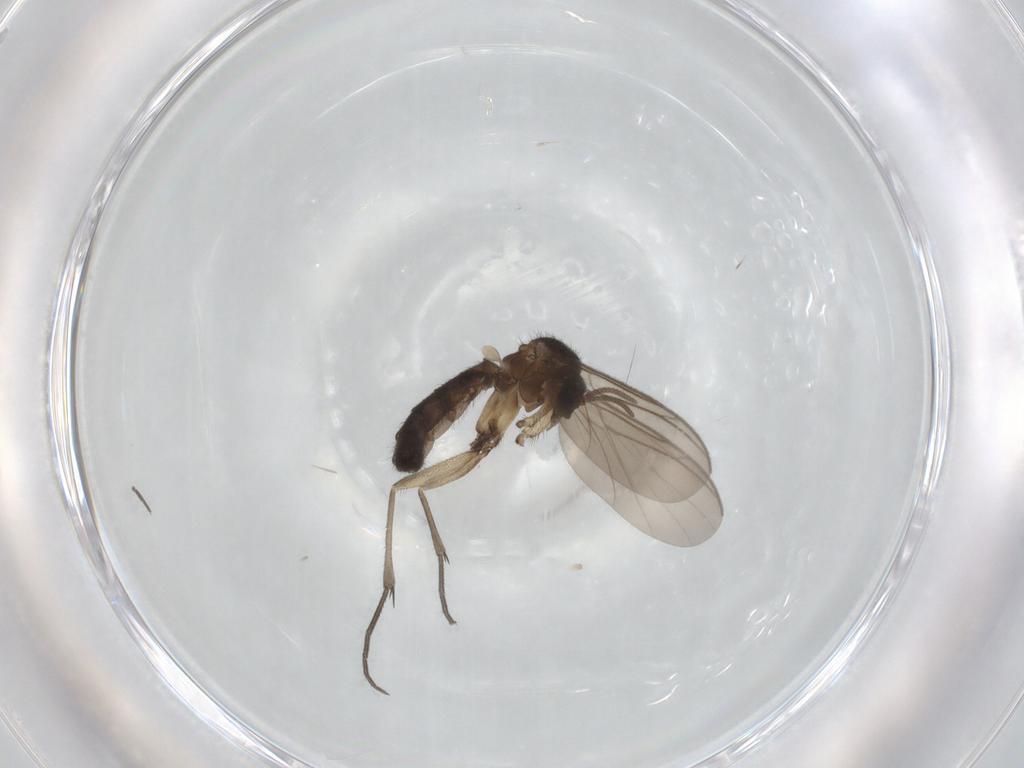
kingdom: Animalia
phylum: Arthropoda
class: Insecta
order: Diptera
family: Keroplatidae
